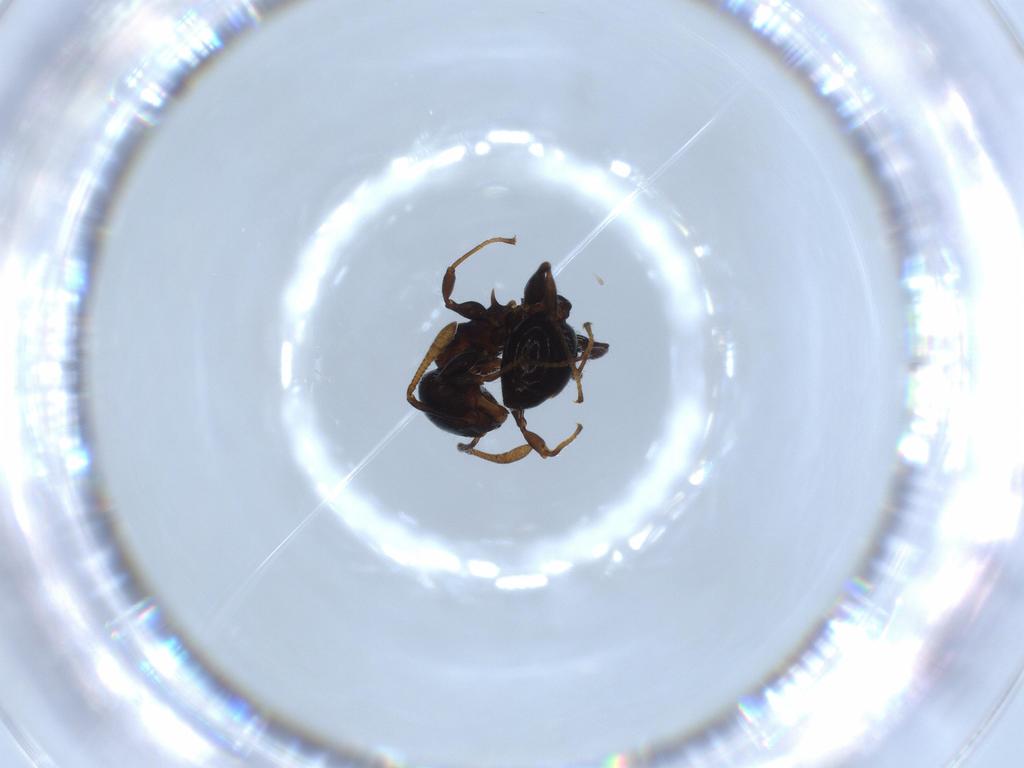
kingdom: Animalia
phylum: Arthropoda
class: Insecta
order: Hymenoptera
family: Formicidae
